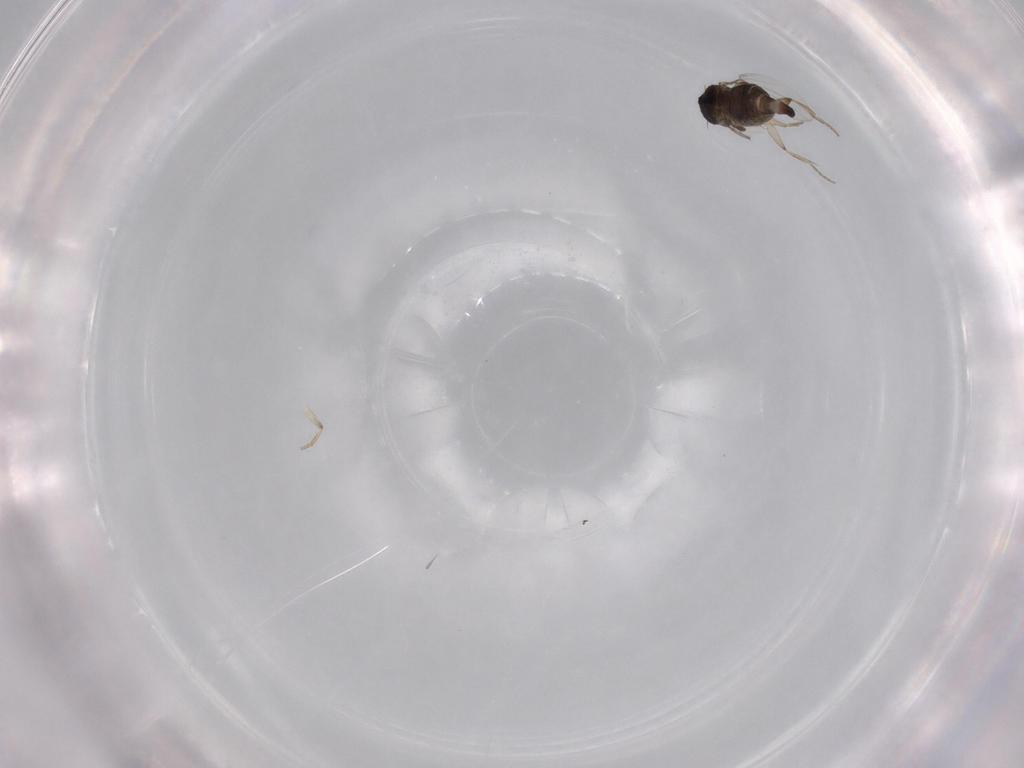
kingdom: Animalia
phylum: Arthropoda
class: Insecta
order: Diptera
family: Phoridae
